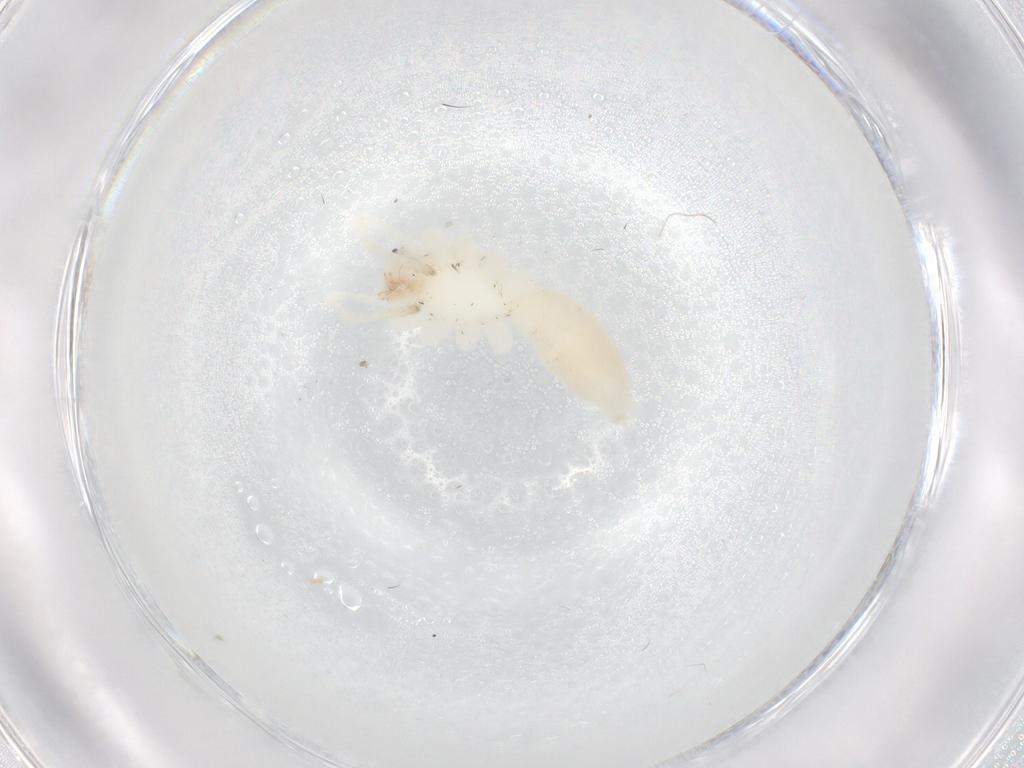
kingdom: Animalia
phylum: Arthropoda
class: Arachnida
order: Araneae
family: Anyphaenidae
